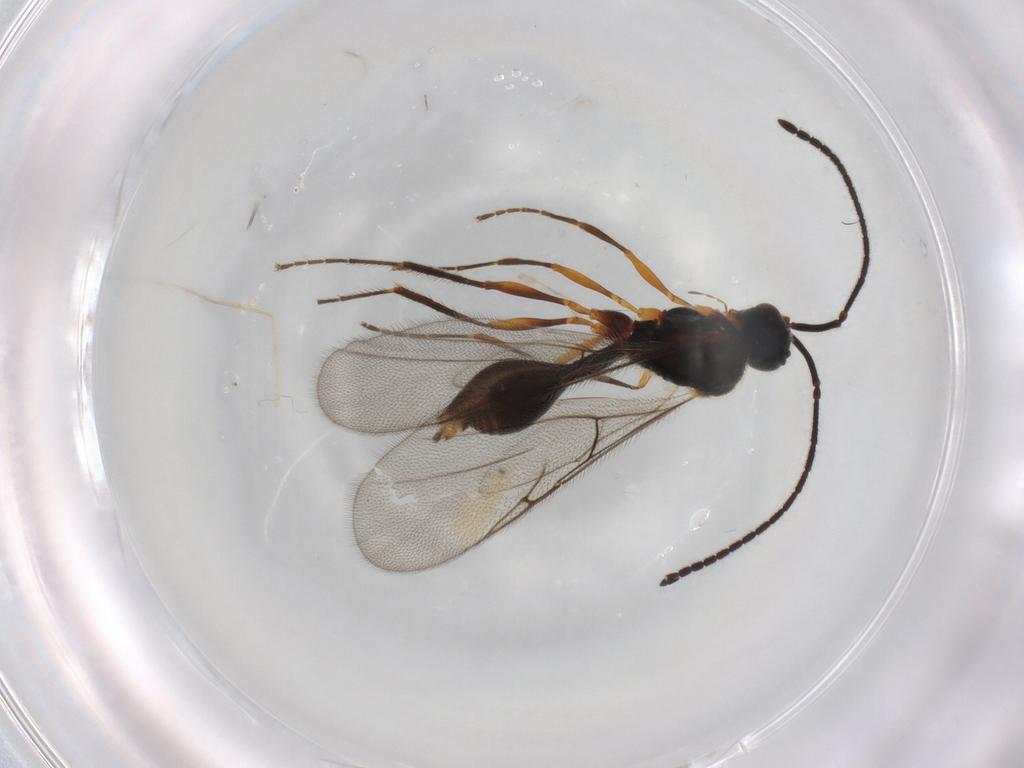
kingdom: Animalia
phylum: Arthropoda
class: Insecta
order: Hymenoptera
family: Diapriidae
